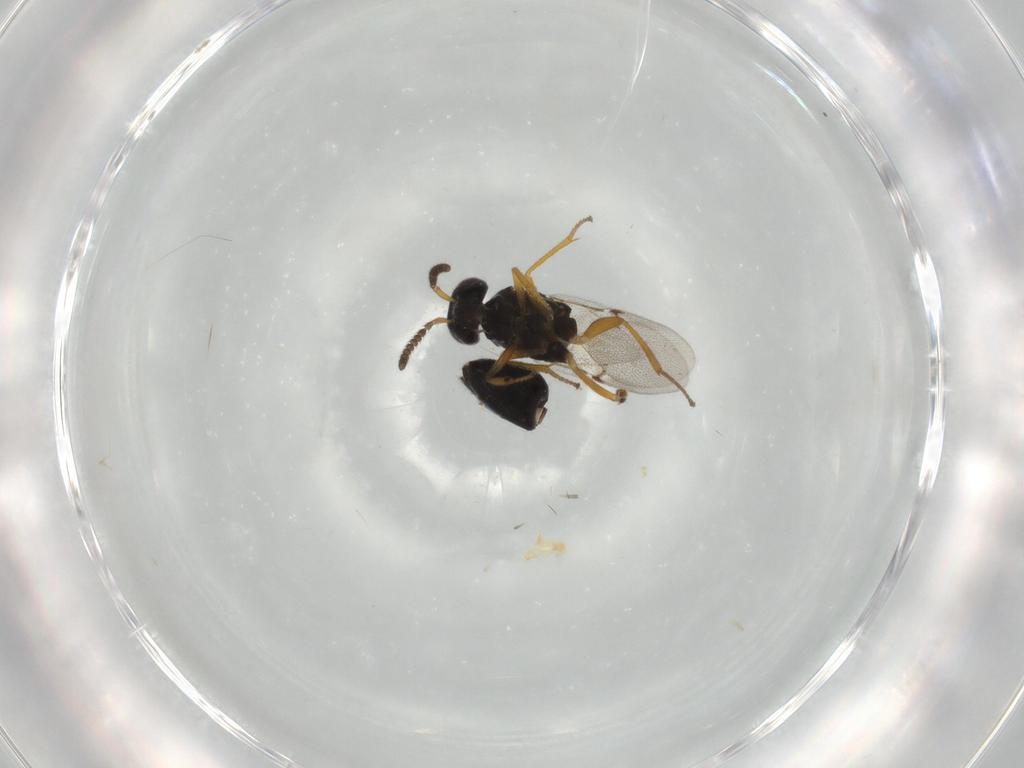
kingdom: Animalia
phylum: Arthropoda
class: Insecta
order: Hymenoptera
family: Encyrtidae
